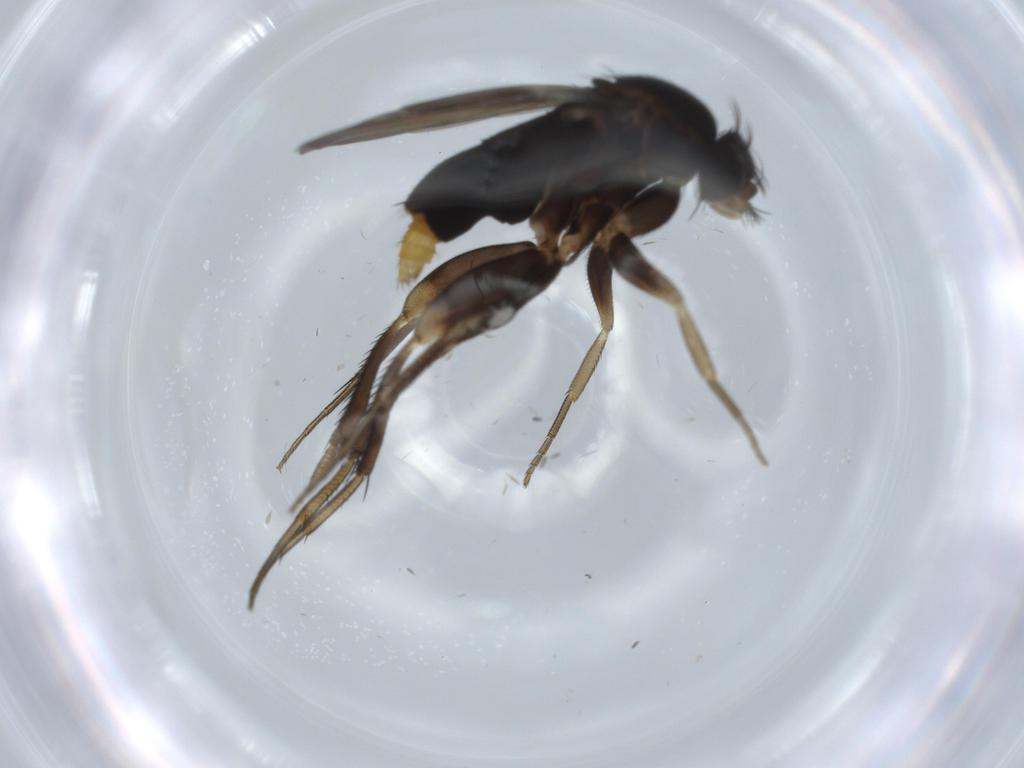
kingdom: Animalia
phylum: Arthropoda
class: Insecta
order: Diptera
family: Phoridae
